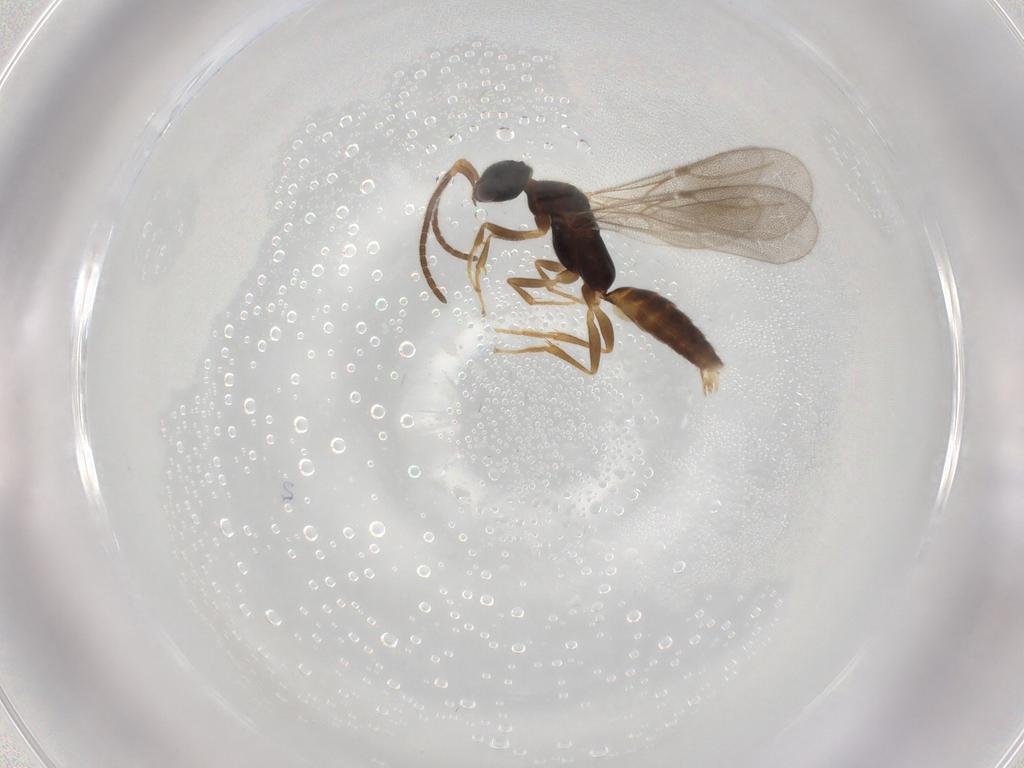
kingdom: Animalia
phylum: Arthropoda
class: Insecta
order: Hymenoptera
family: Bethylidae
